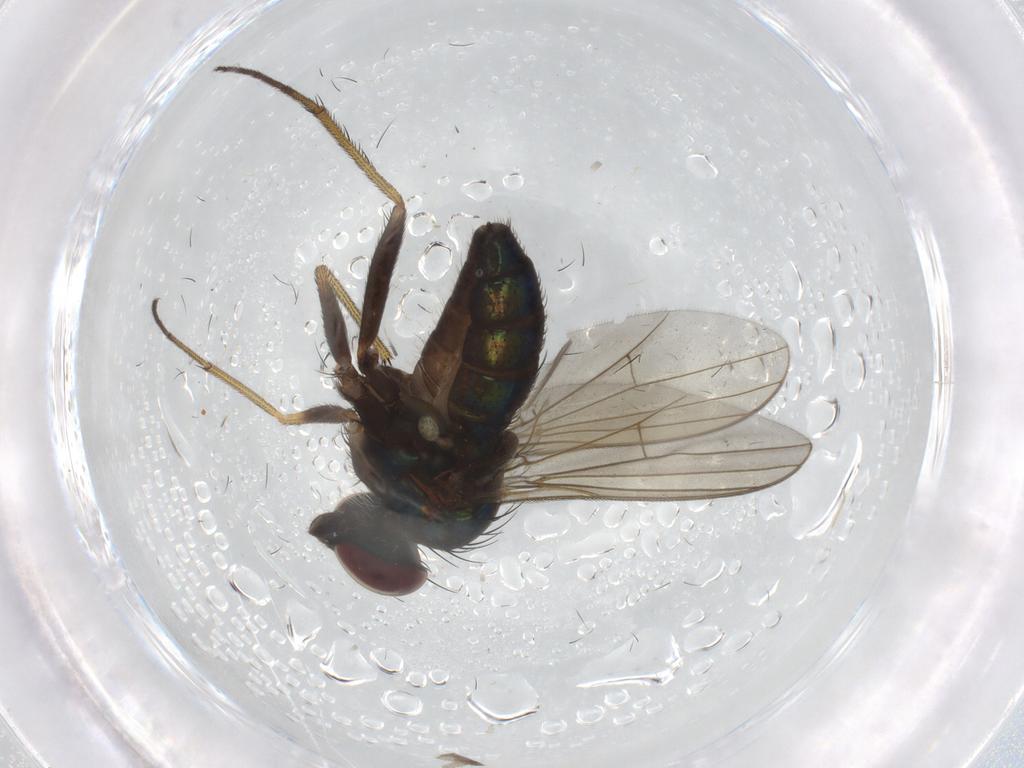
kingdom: Animalia
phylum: Arthropoda
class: Insecta
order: Diptera
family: Dolichopodidae
